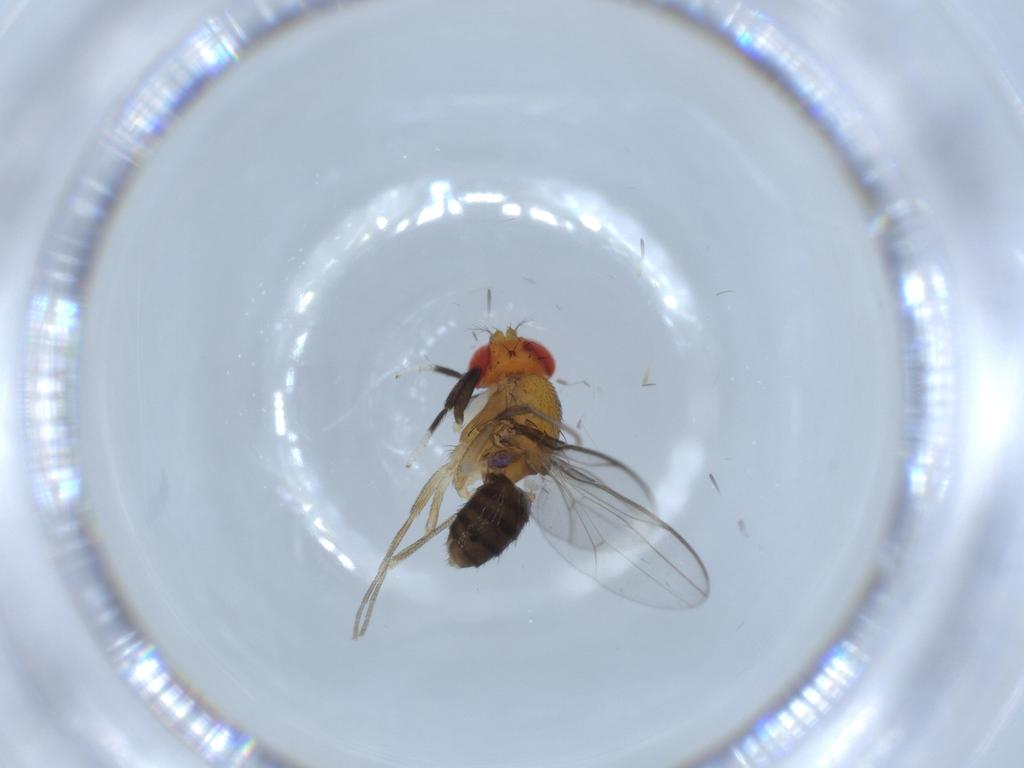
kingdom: Animalia
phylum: Arthropoda
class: Insecta
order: Diptera
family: Drosophilidae
